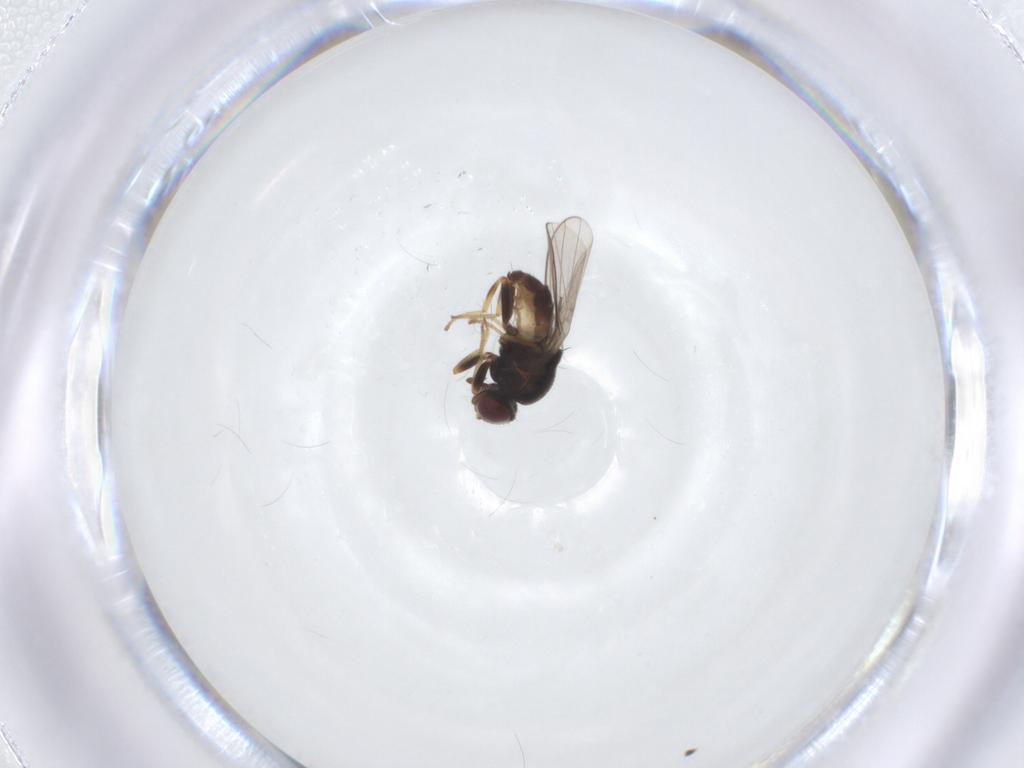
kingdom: Animalia
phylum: Arthropoda
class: Insecta
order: Diptera
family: Chloropidae
